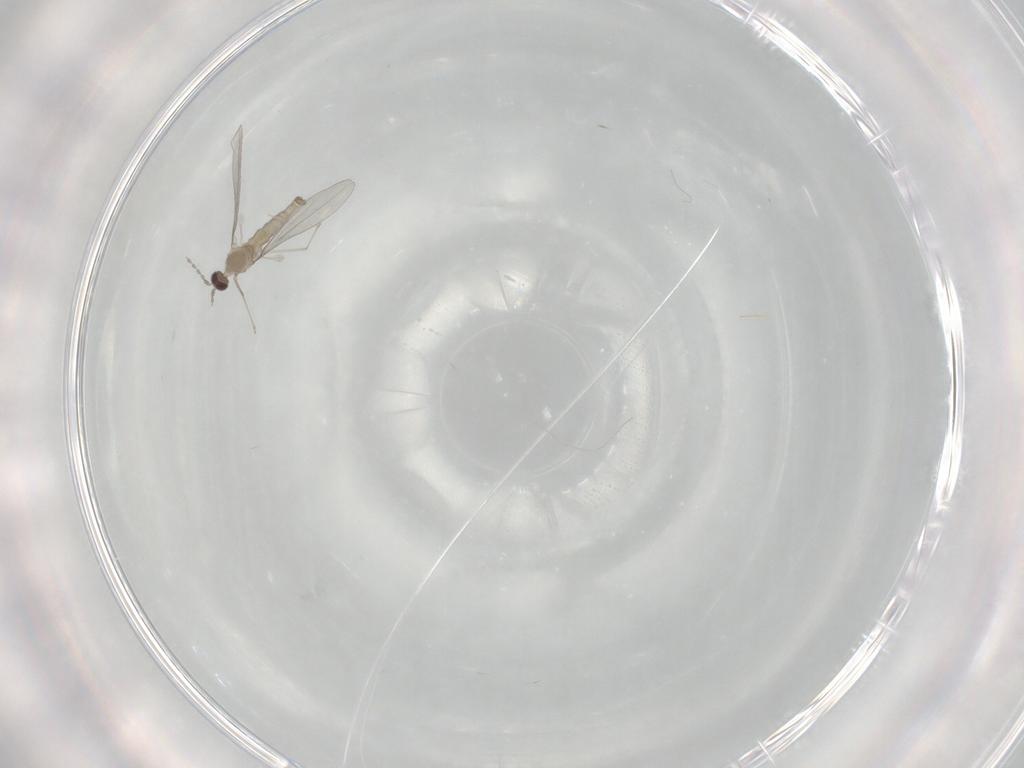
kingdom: Animalia
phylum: Arthropoda
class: Insecta
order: Diptera
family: Cecidomyiidae
